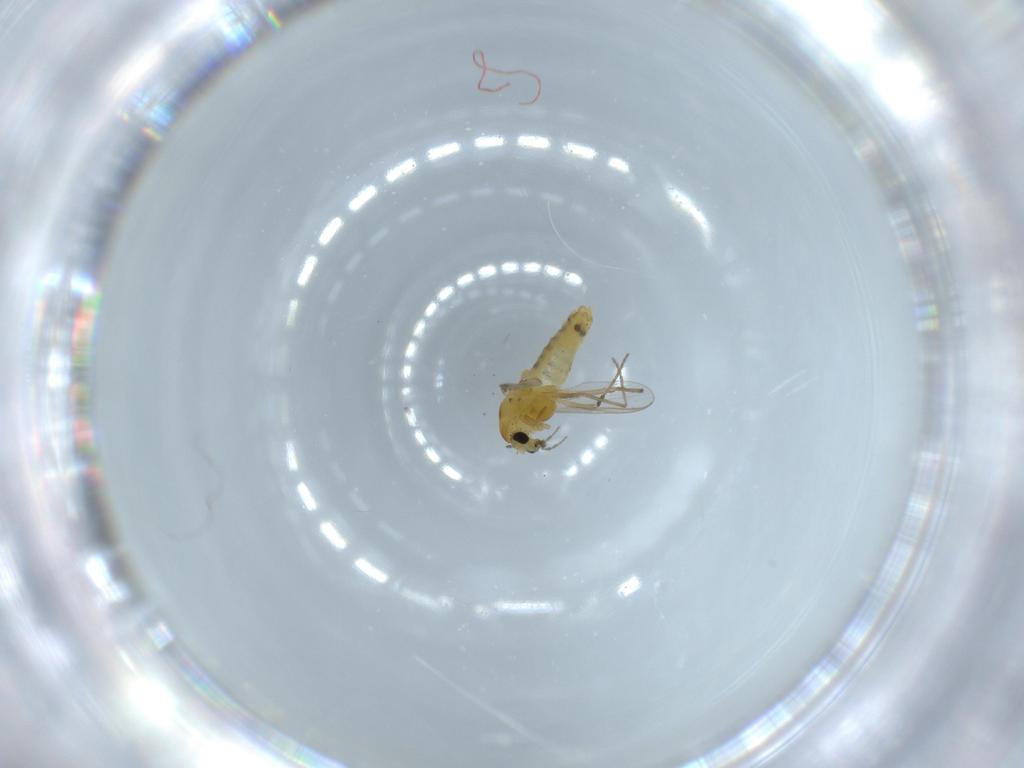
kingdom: Animalia
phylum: Arthropoda
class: Insecta
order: Diptera
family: Chironomidae
